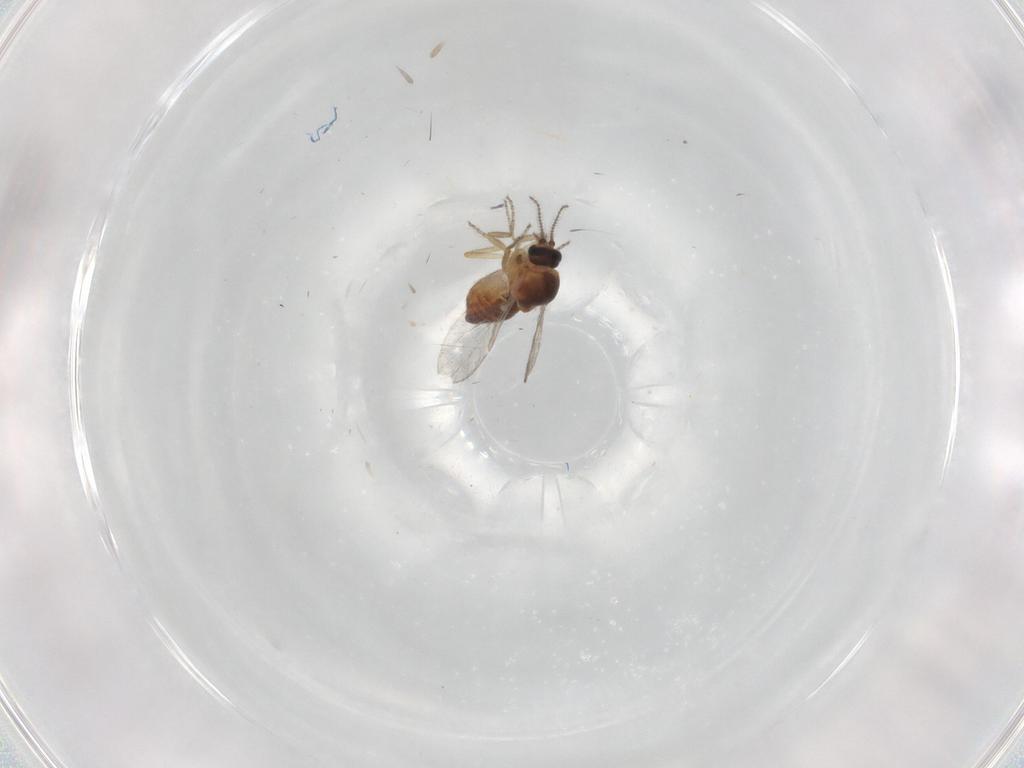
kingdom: Animalia
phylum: Arthropoda
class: Insecta
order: Diptera
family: Ceratopogonidae
